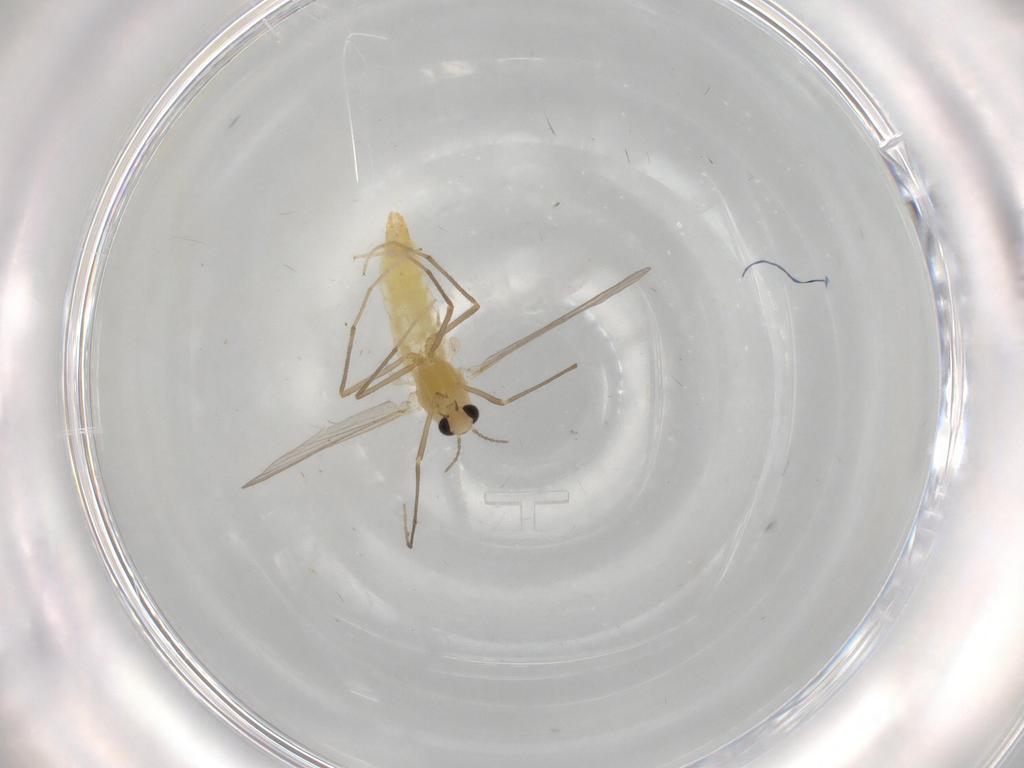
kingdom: Animalia
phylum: Arthropoda
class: Insecta
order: Diptera
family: Chironomidae
